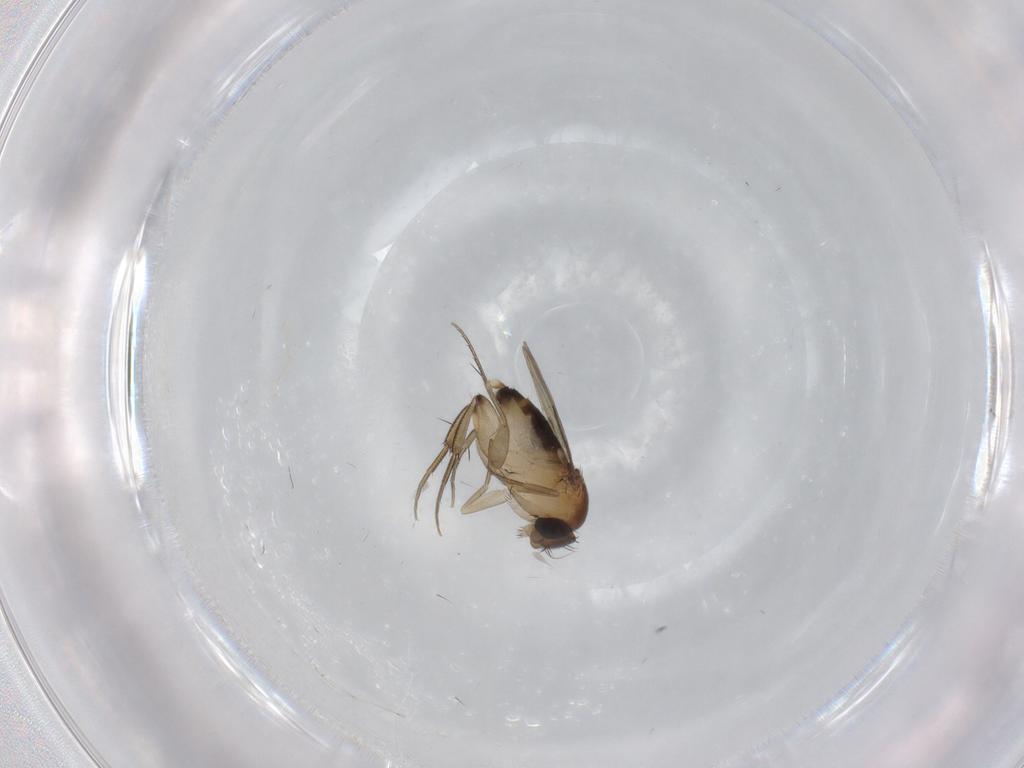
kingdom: Animalia
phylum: Arthropoda
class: Insecta
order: Diptera
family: Phoridae
